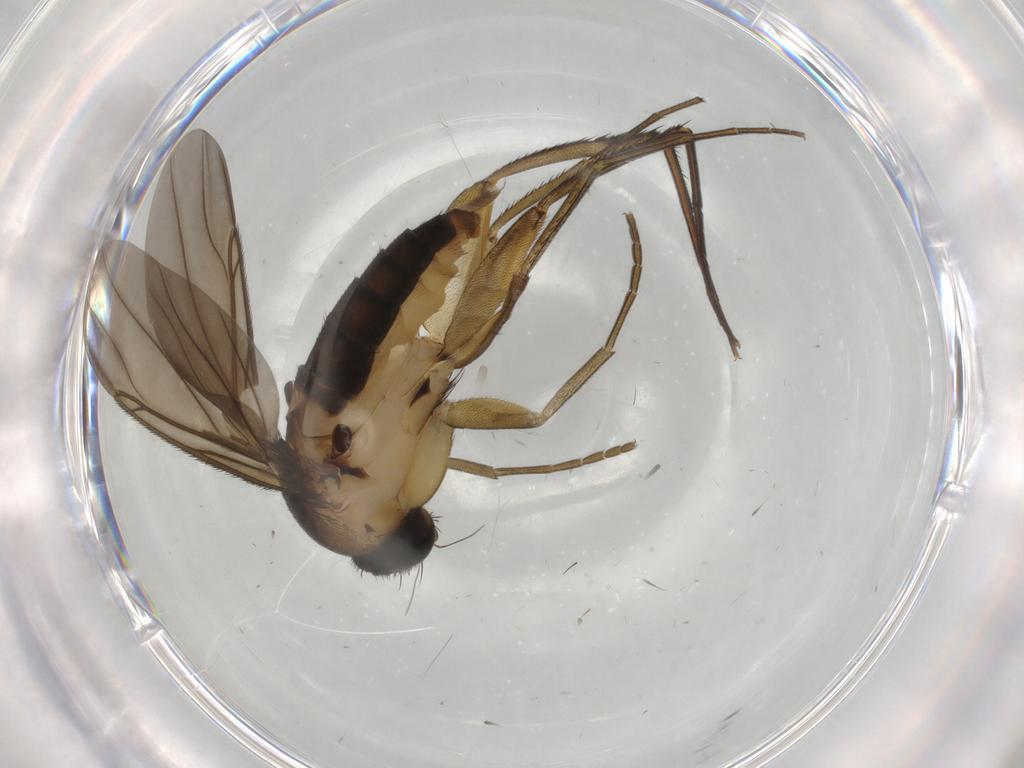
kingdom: Animalia
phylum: Arthropoda
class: Insecta
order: Diptera
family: Phoridae
